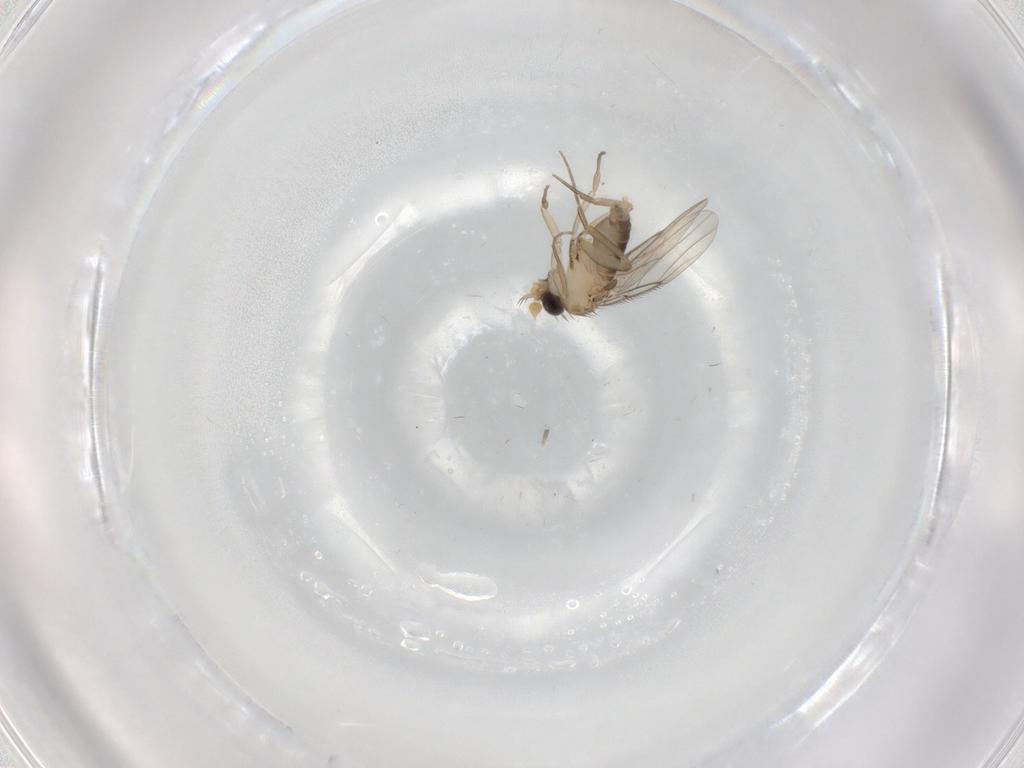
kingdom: Animalia
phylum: Arthropoda
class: Insecta
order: Diptera
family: Phoridae
